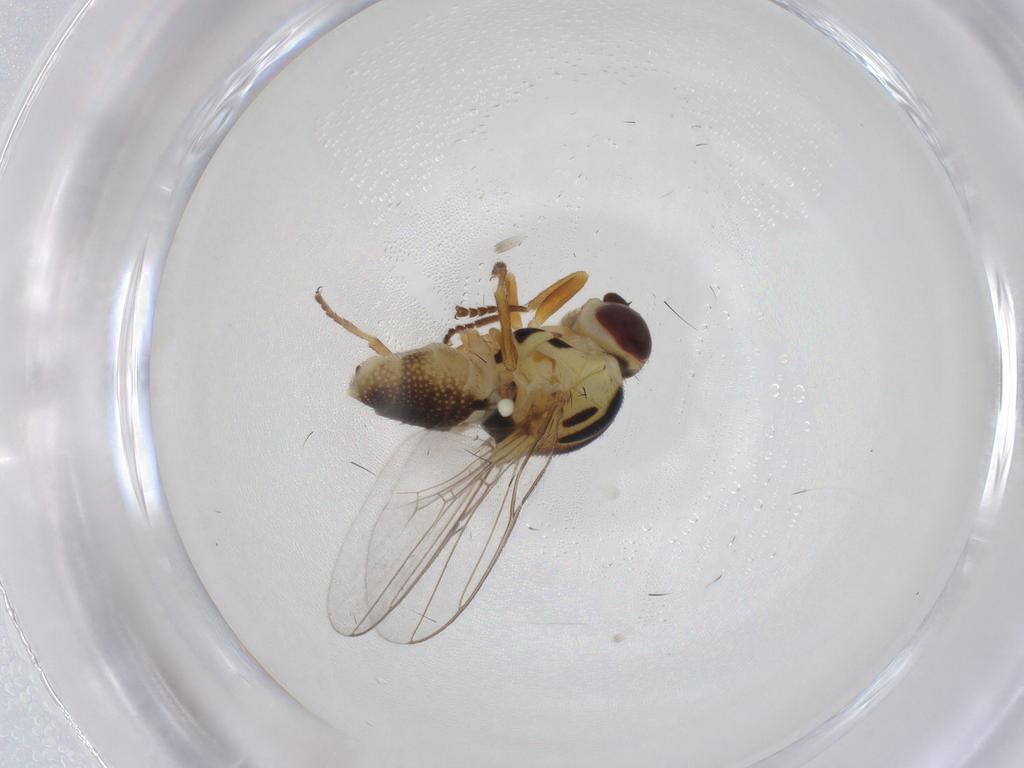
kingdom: Animalia
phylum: Arthropoda
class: Insecta
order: Diptera
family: Chloropidae
